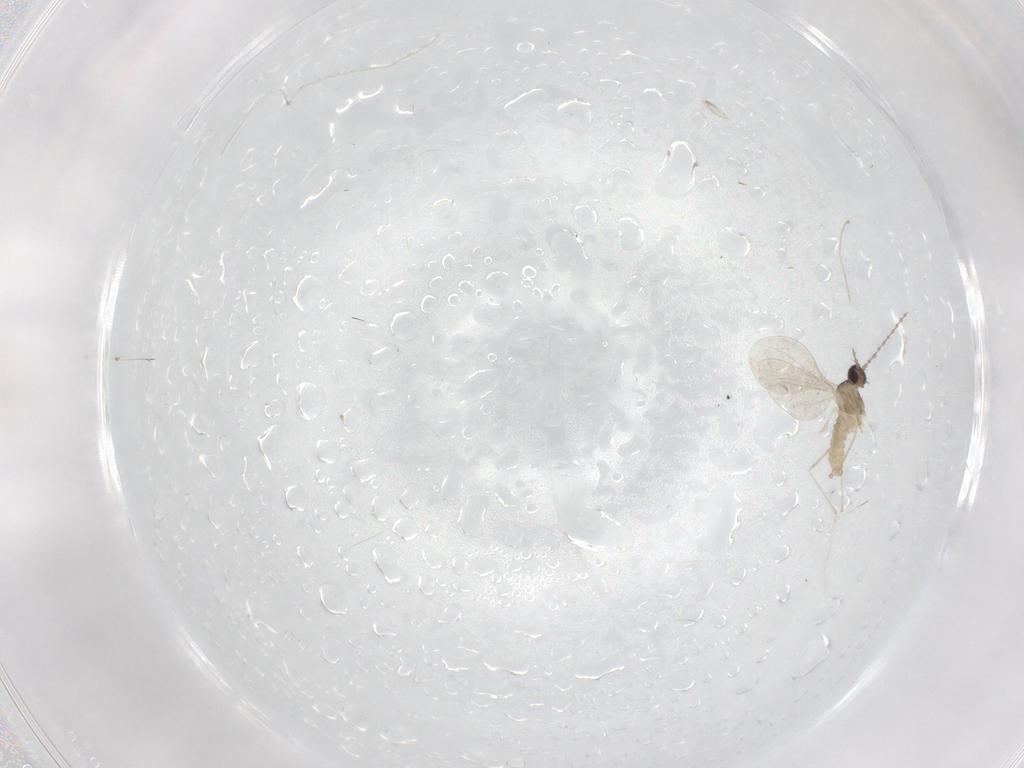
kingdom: Animalia
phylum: Arthropoda
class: Insecta
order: Diptera
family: Cecidomyiidae
